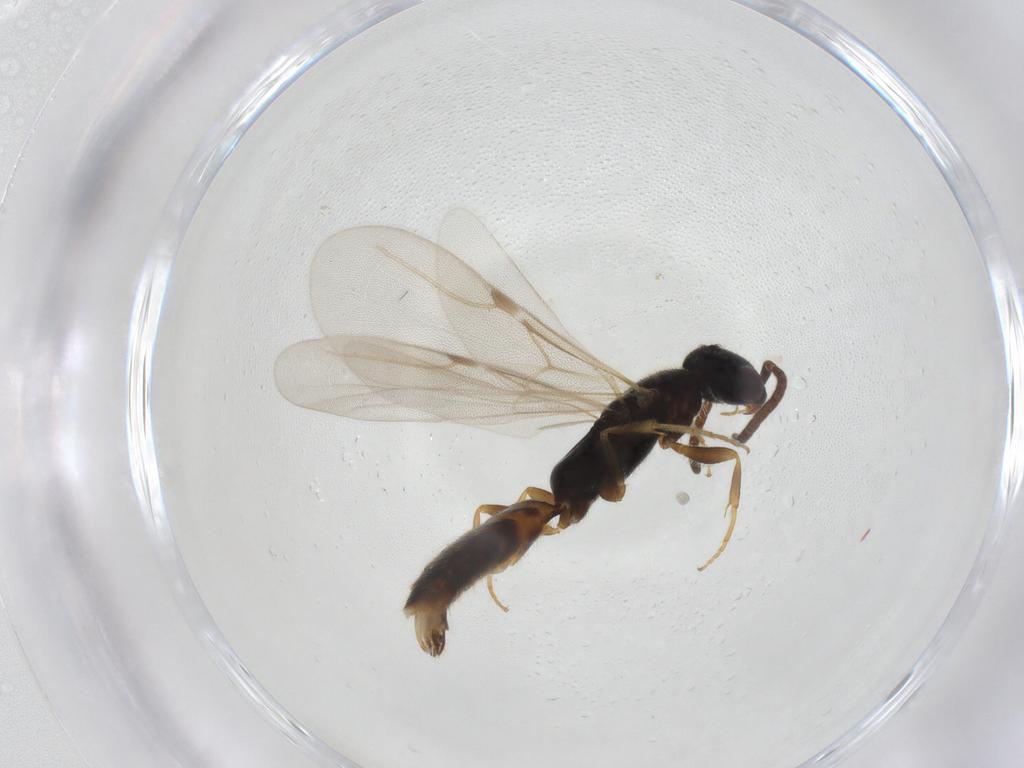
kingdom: Animalia
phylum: Arthropoda
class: Insecta
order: Hymenoptera
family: Bethylidae
